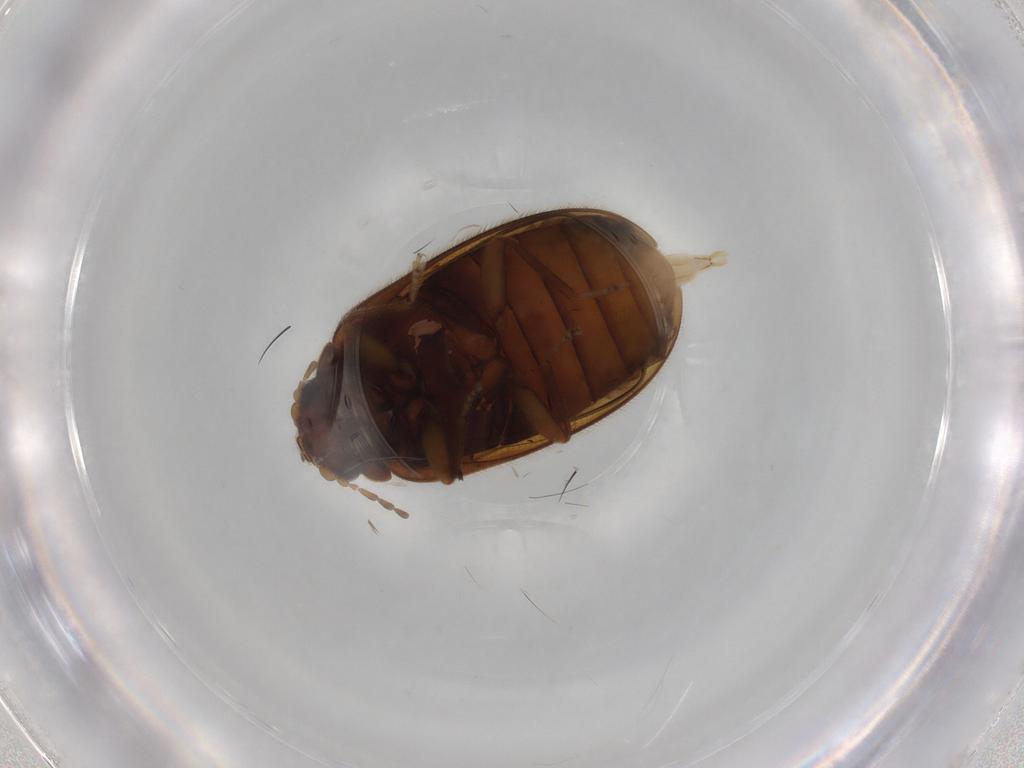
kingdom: Animalia
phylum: Arthropoda
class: Insecta
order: Coleoptera
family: Scirtidae
